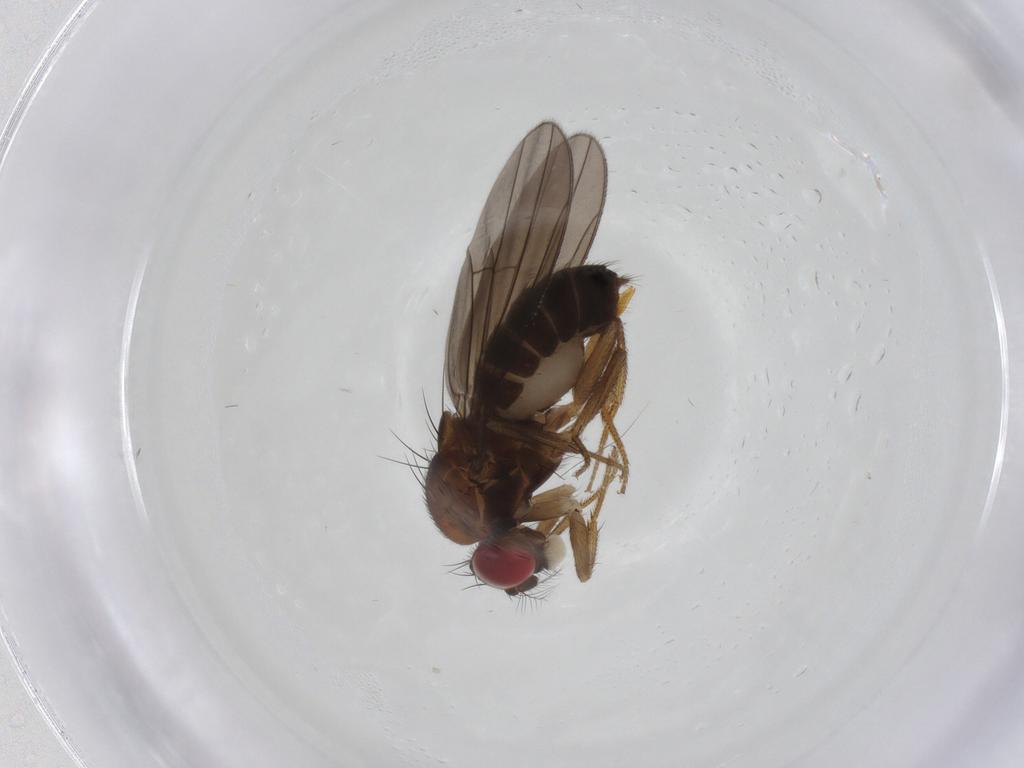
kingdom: Animalia
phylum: Arthropoda
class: Insecta
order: Diptera
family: Drosophilidae
